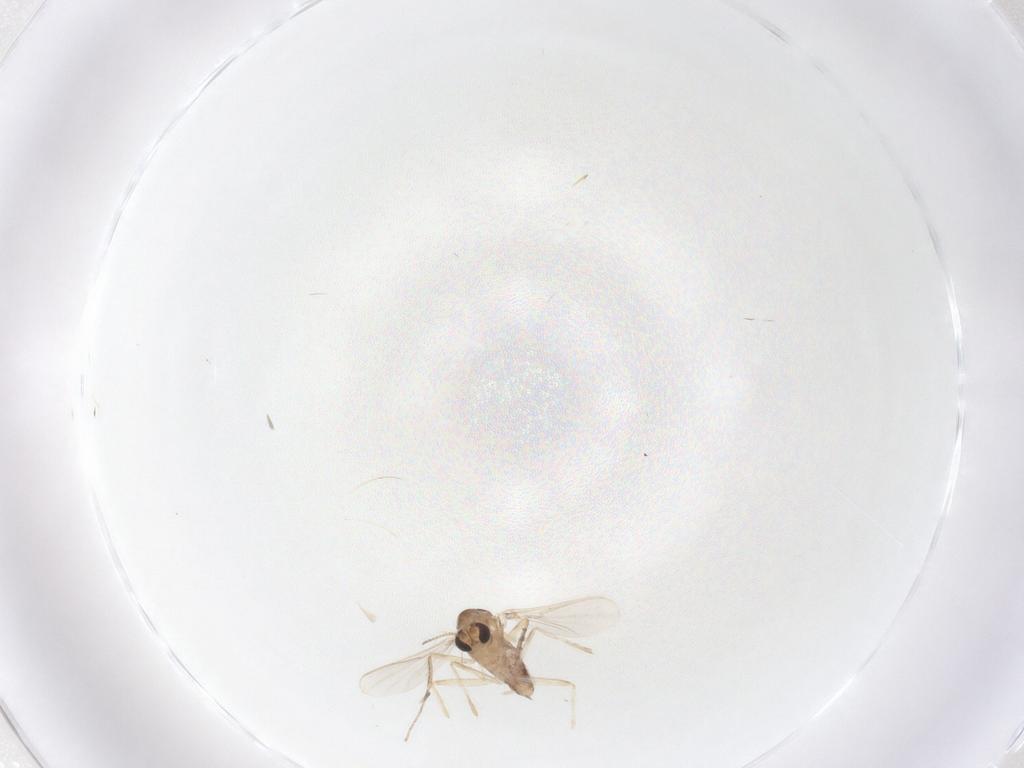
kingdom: Animalia
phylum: Arthropoda
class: Insecta
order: Diptera
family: Chironomidae
